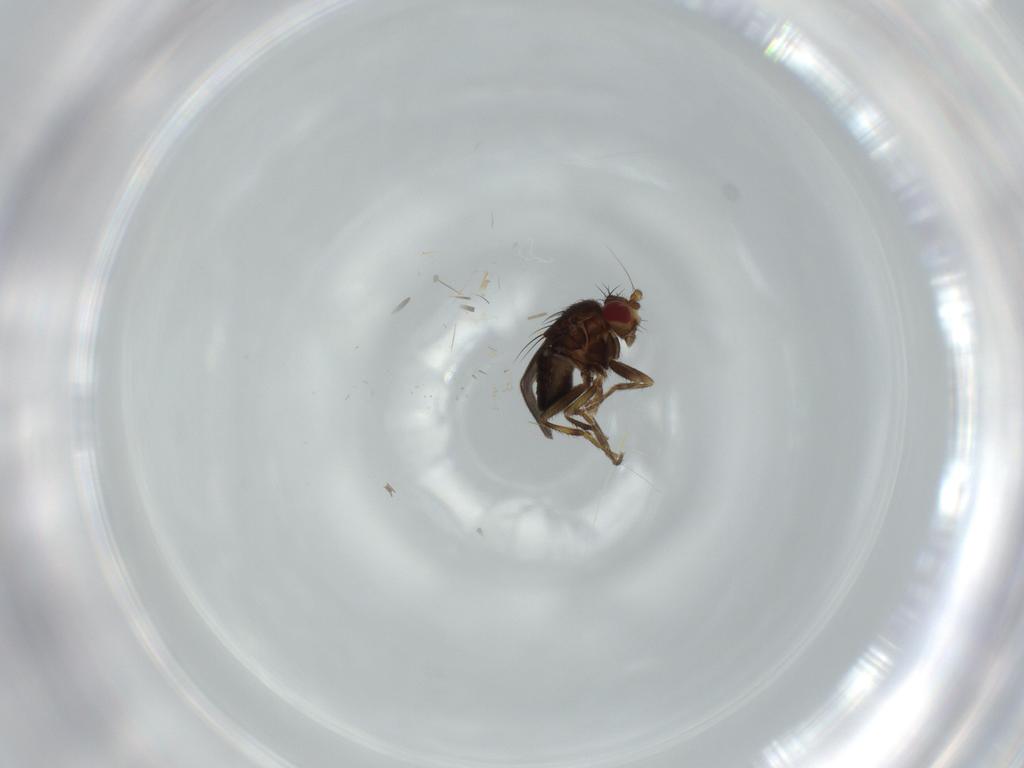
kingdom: Animalia
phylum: Arthropoda
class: Insecta
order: Diptera
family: Sphaeroceridae
